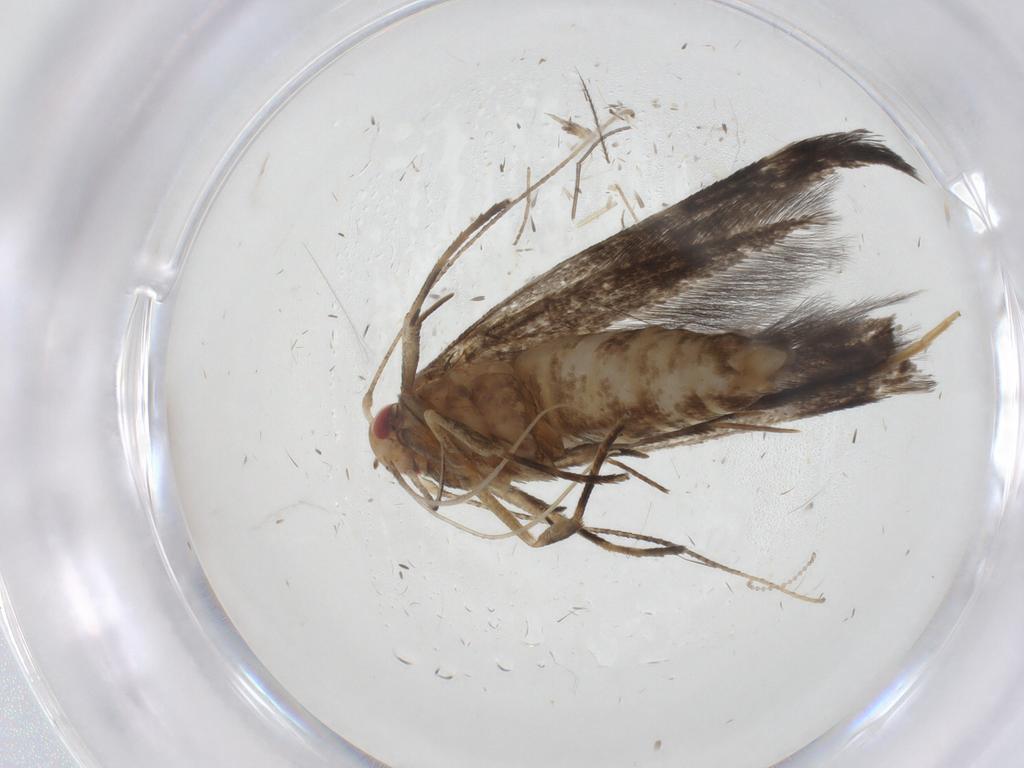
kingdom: Animalia
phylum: Arthropoda
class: Insecta
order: Lepidoptera
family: Cosmopterigidae
